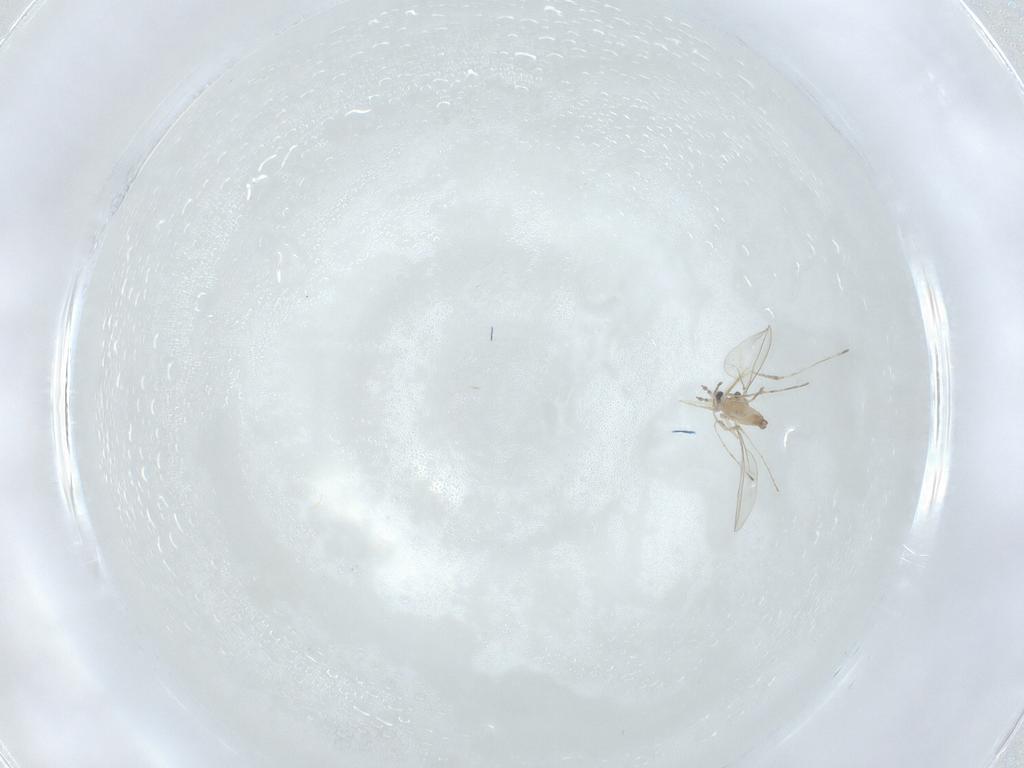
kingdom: Animalia
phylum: Arthropoda
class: Insecta
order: Diptera
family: Cecidomyiidae
